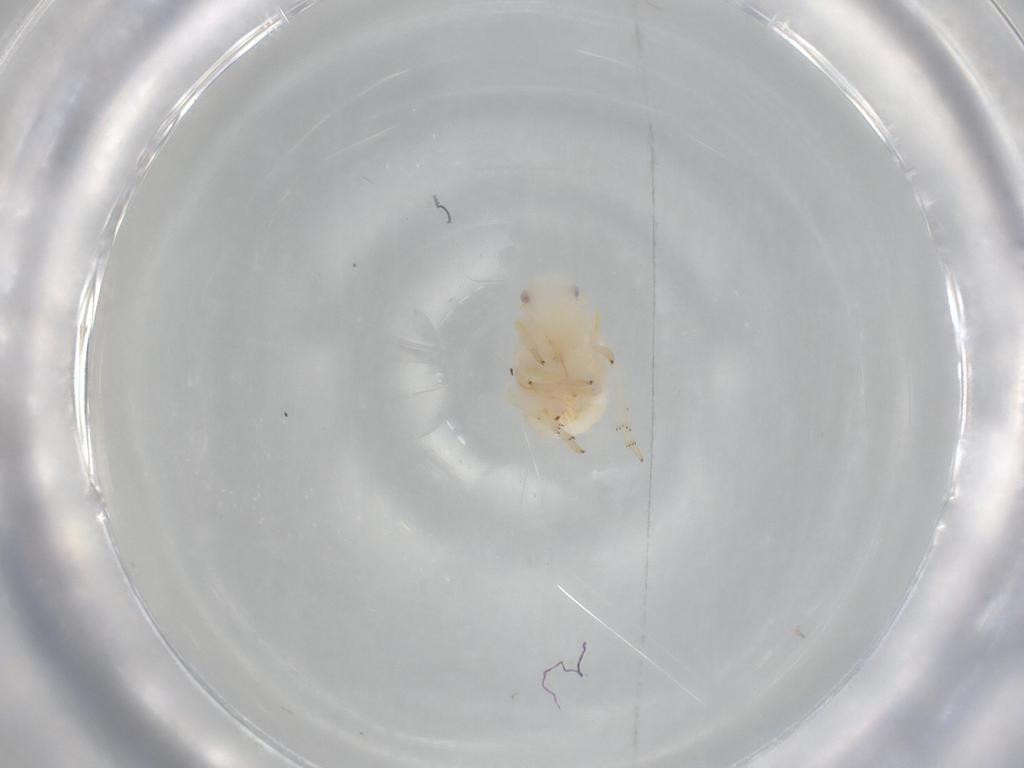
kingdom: Animalia
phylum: Arthropoda
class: Insecta
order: Hemiptera
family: Flatidae
